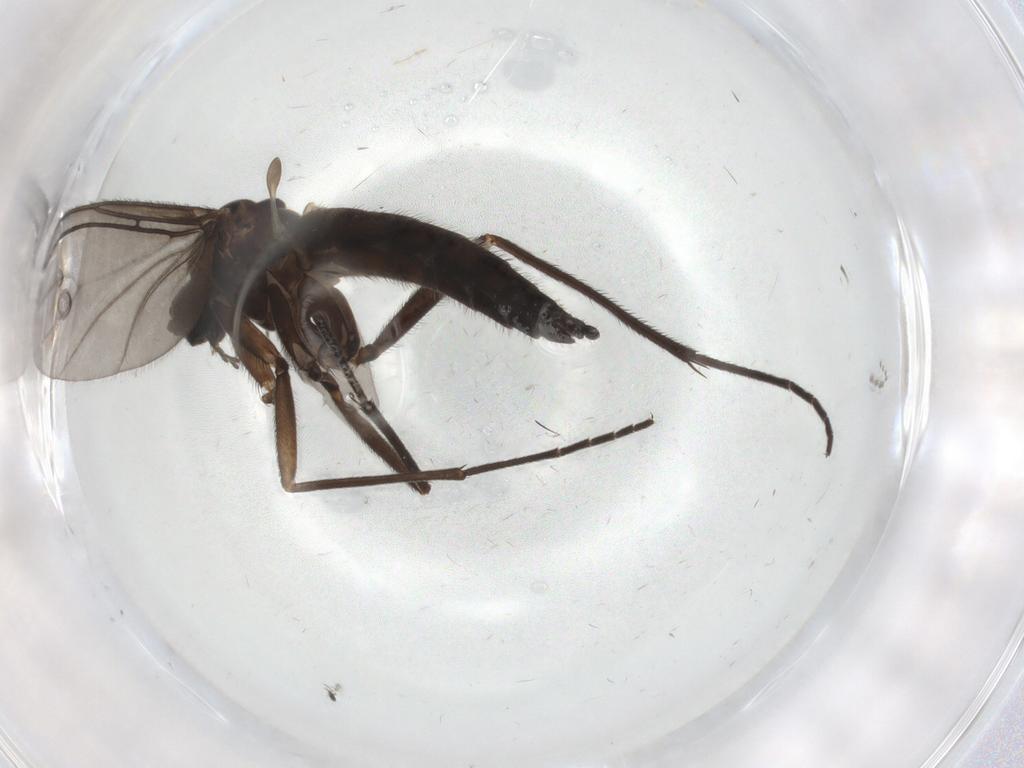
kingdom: Animalia
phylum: Arthropoda
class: Insecta
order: Diptera
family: Sciaridae
